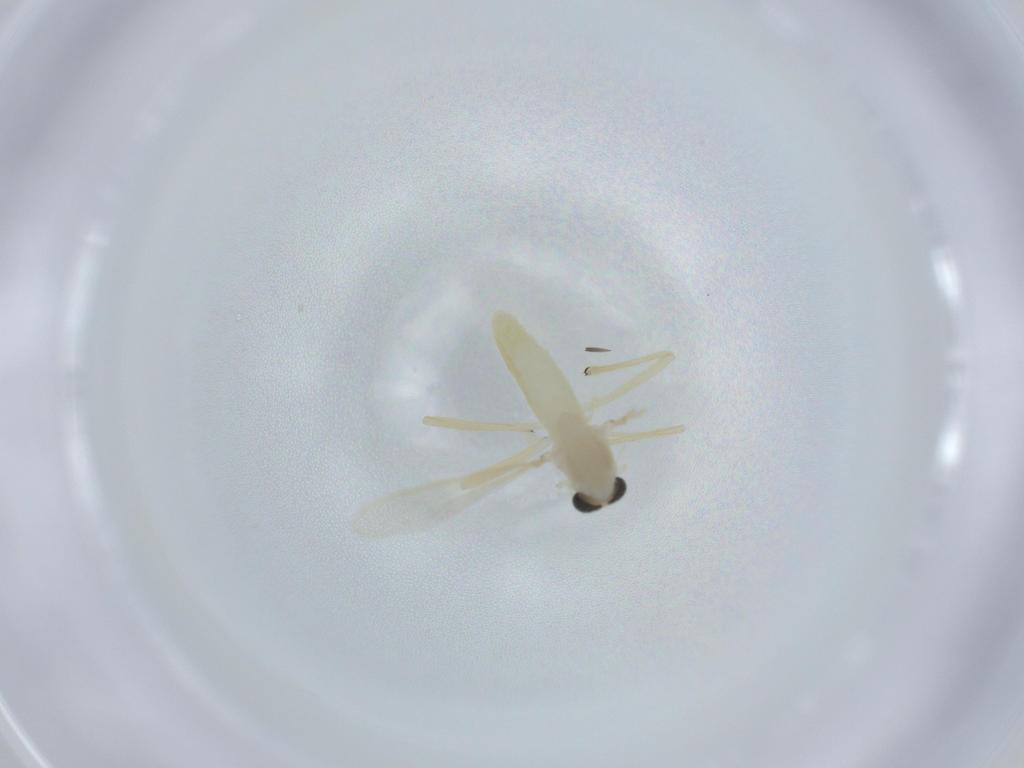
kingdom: Animalia
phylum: Arthropoda
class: Insecta
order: Diptera
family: Chironomidae
